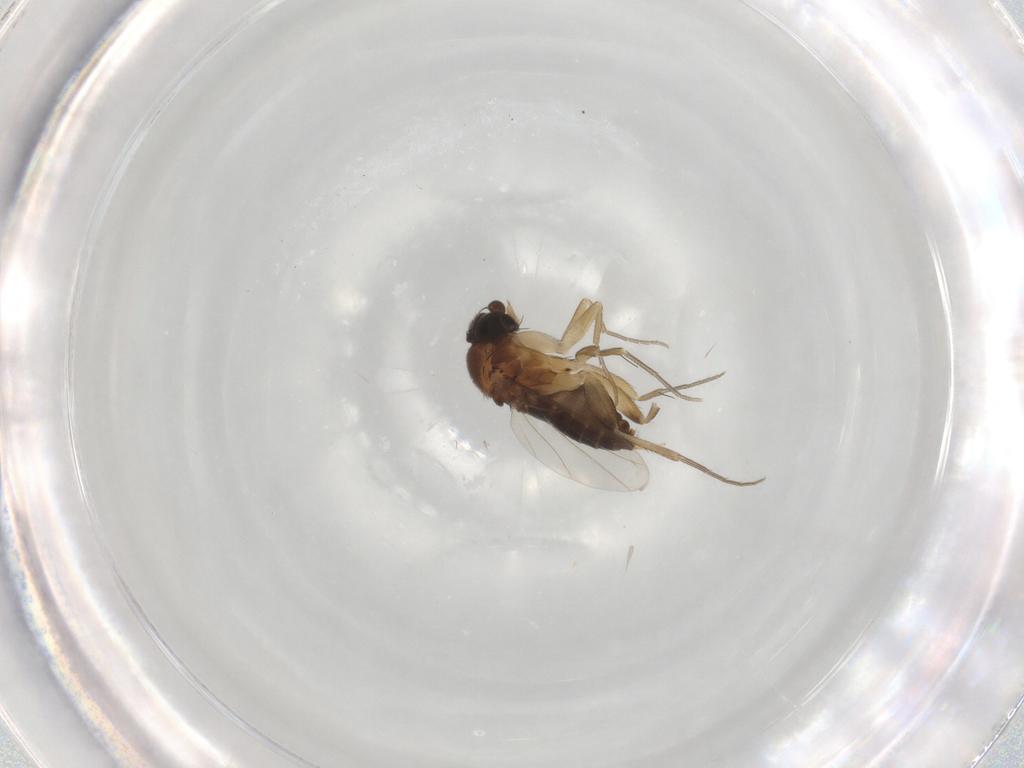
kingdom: Animalia
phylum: Arthropoda
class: Insecta
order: Diptera
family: Phoridae
